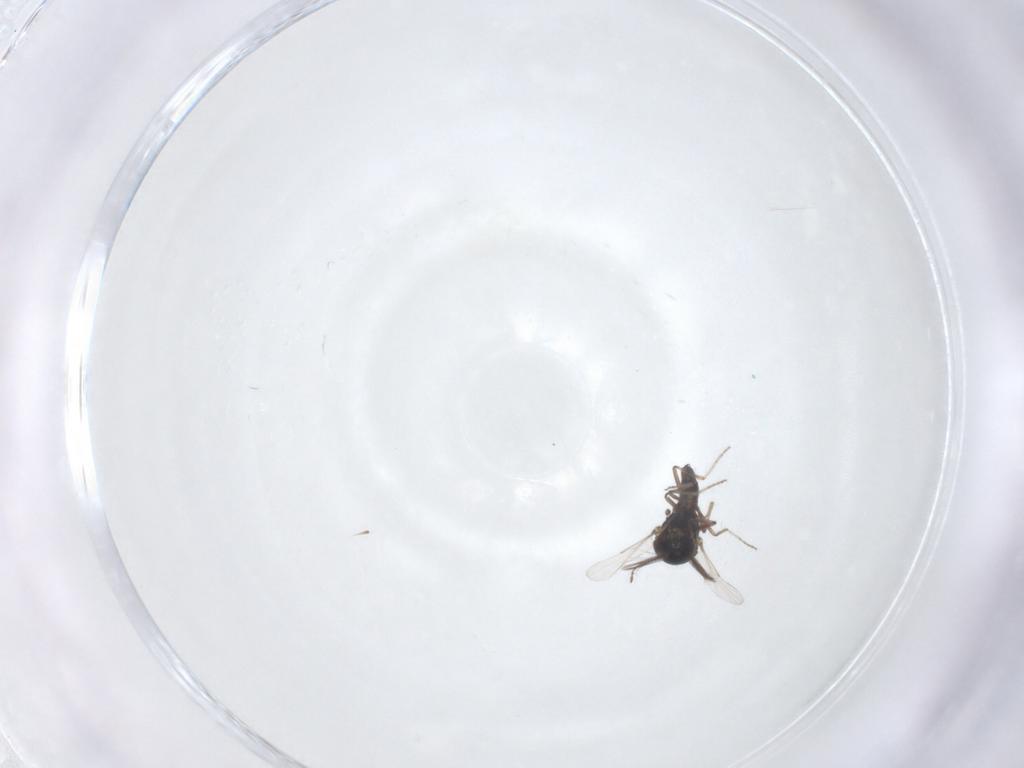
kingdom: Animalia
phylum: Arthropoda
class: Insecta
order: Diptera
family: Ceratopogonidae
